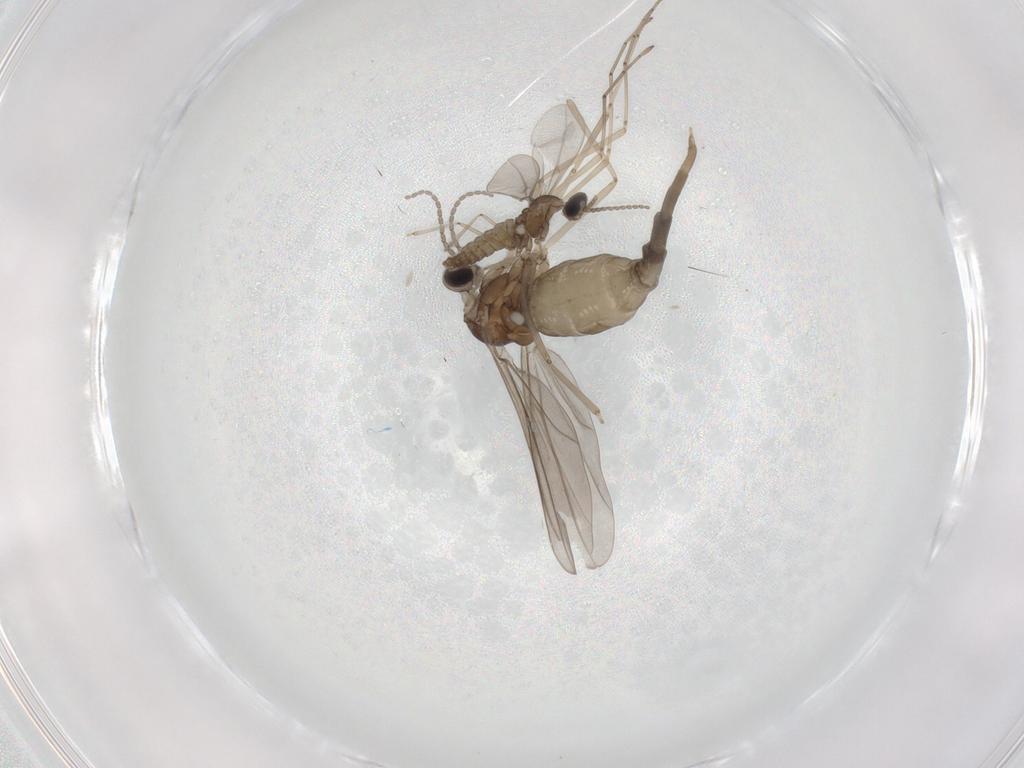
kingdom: Animalia
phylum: Arthropoda
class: Insecta
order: Diptera
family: Chironomidae
